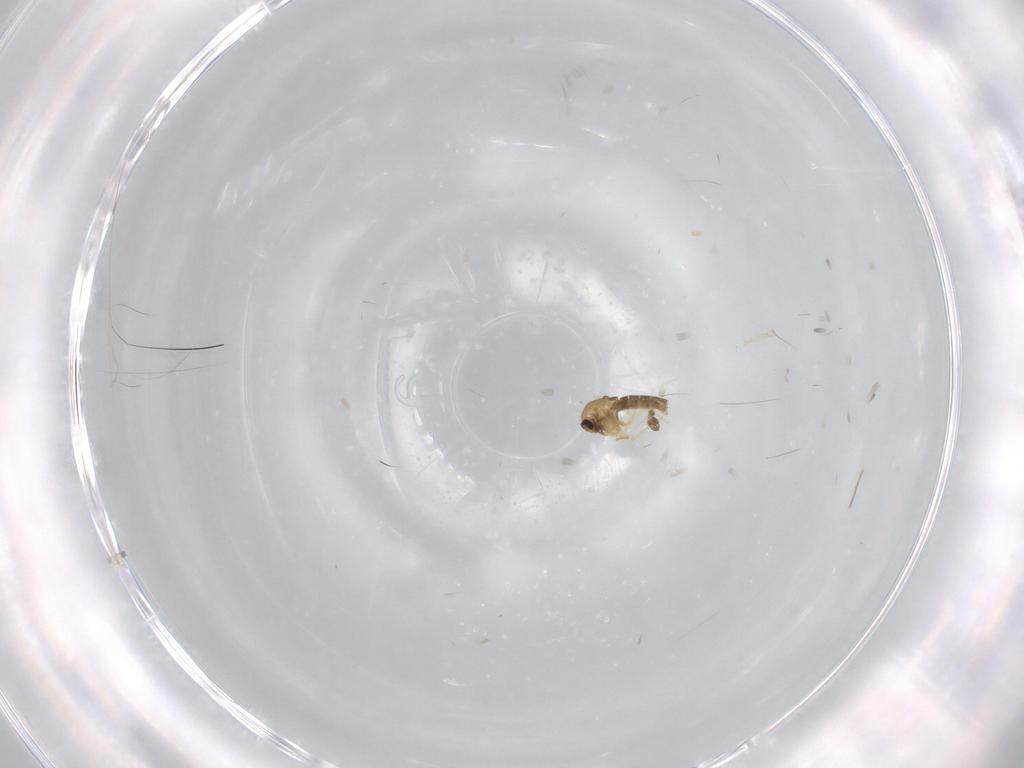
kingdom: Animalia
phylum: Arthropoda
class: Insecta
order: Diptera
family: Chironomidae
